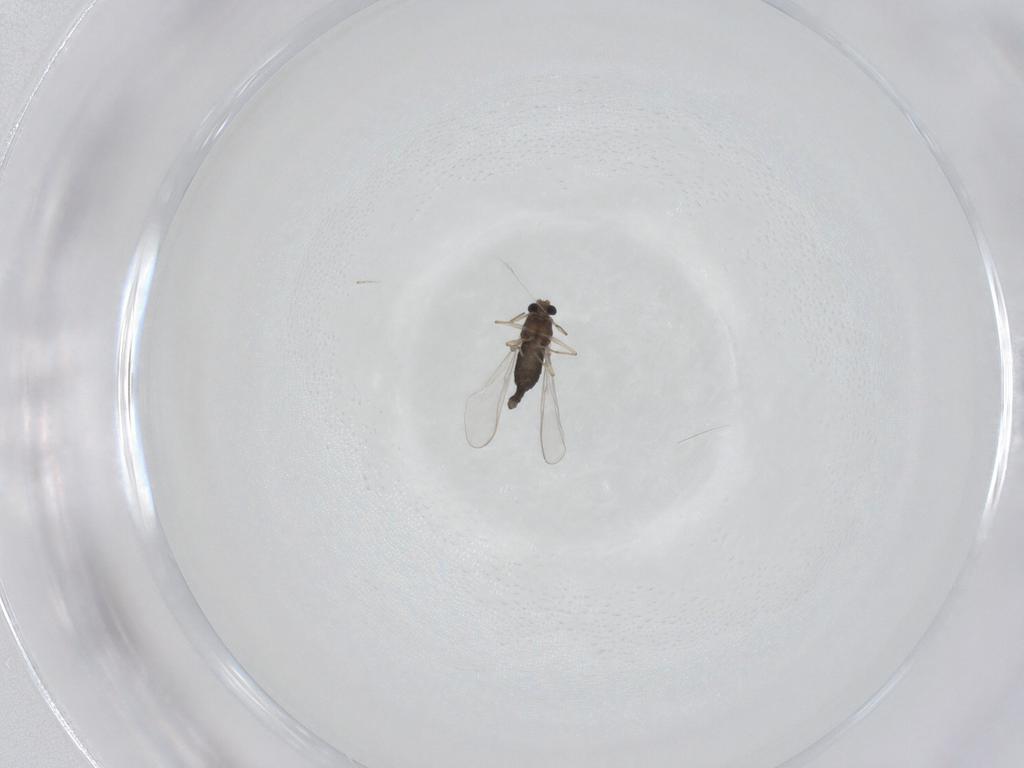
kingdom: Animalia
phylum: Arthropoda
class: Insecta
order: Diptera
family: Chironomidae
